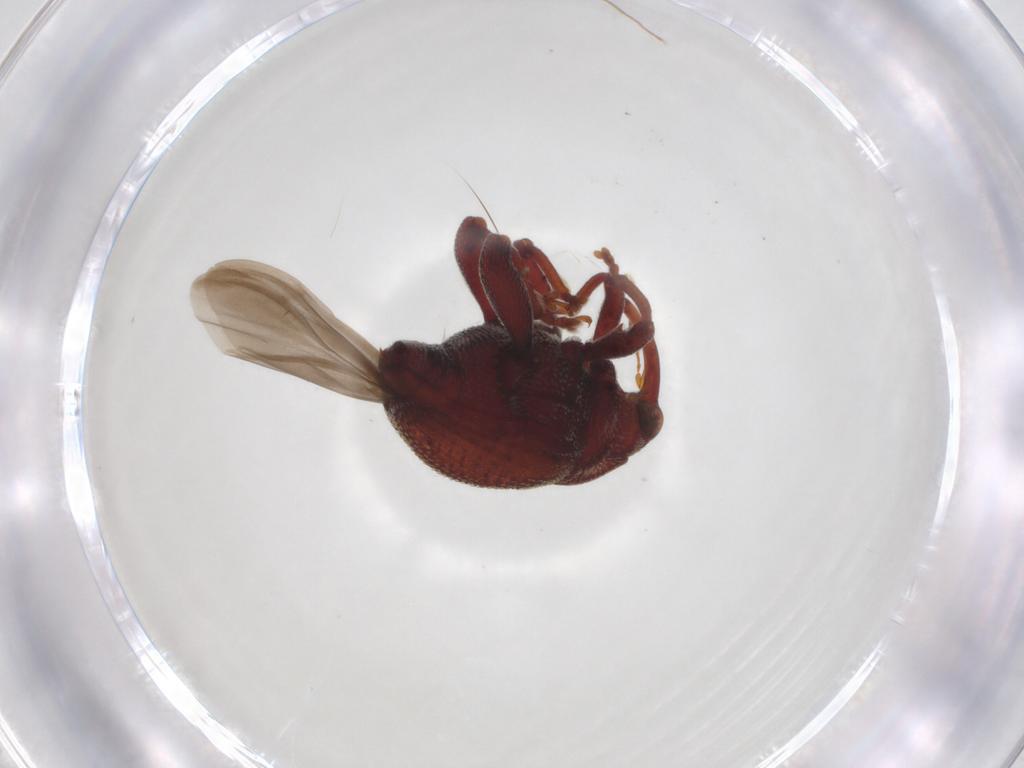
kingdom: Animalia
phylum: Arthropoda
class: Insecta
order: Coleoptera
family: Curculionidae
